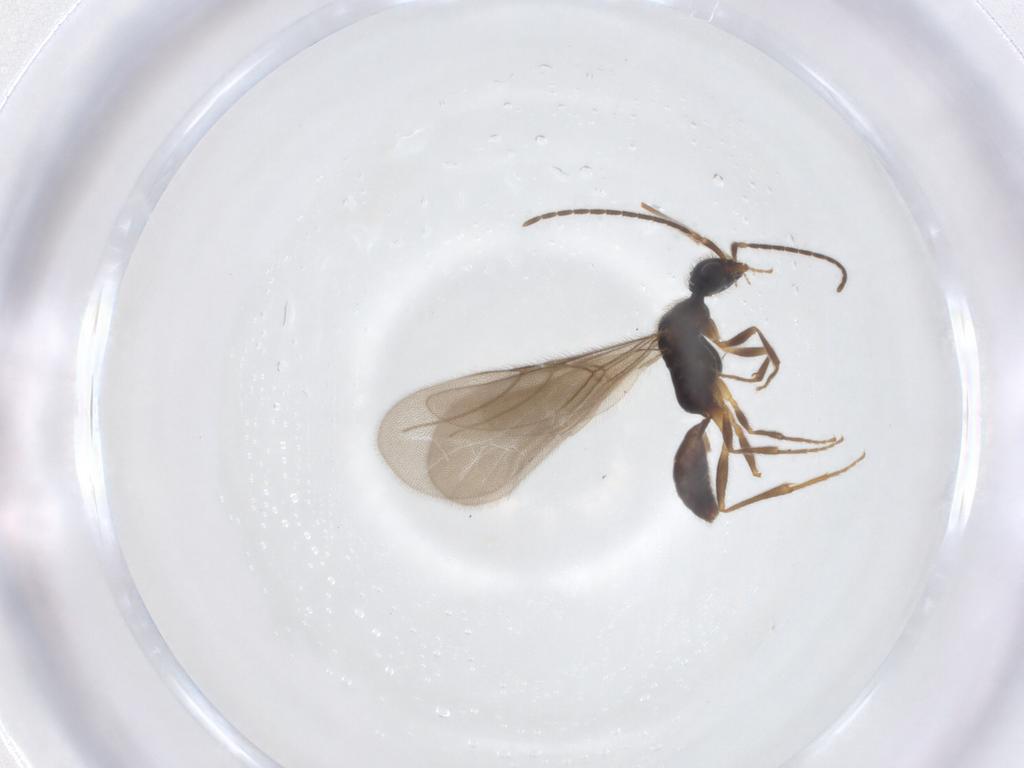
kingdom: Animalia
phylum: Arthropoda
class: Insecta
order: Hymenoptera
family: Bethylidae
